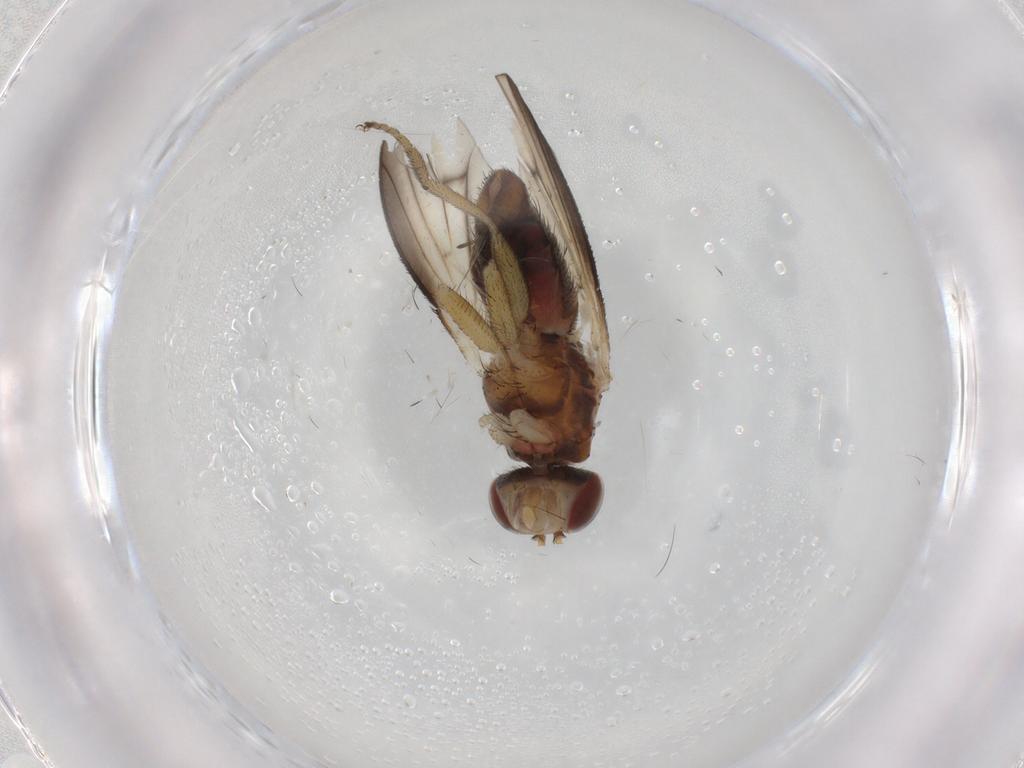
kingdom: Animalia
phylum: Arthropoda
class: Insecta
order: Diptera
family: Heleomyzidae
